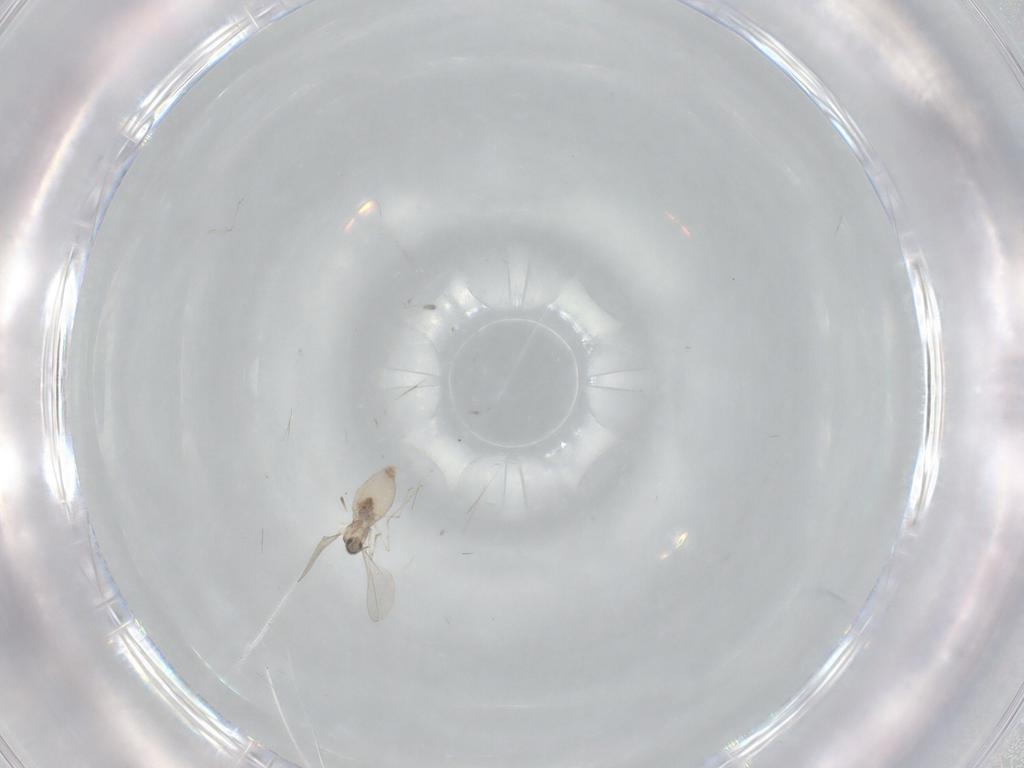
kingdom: Animalia
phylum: Arthropoda
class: Insecta
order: Diptera
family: Cecidomyiidae
